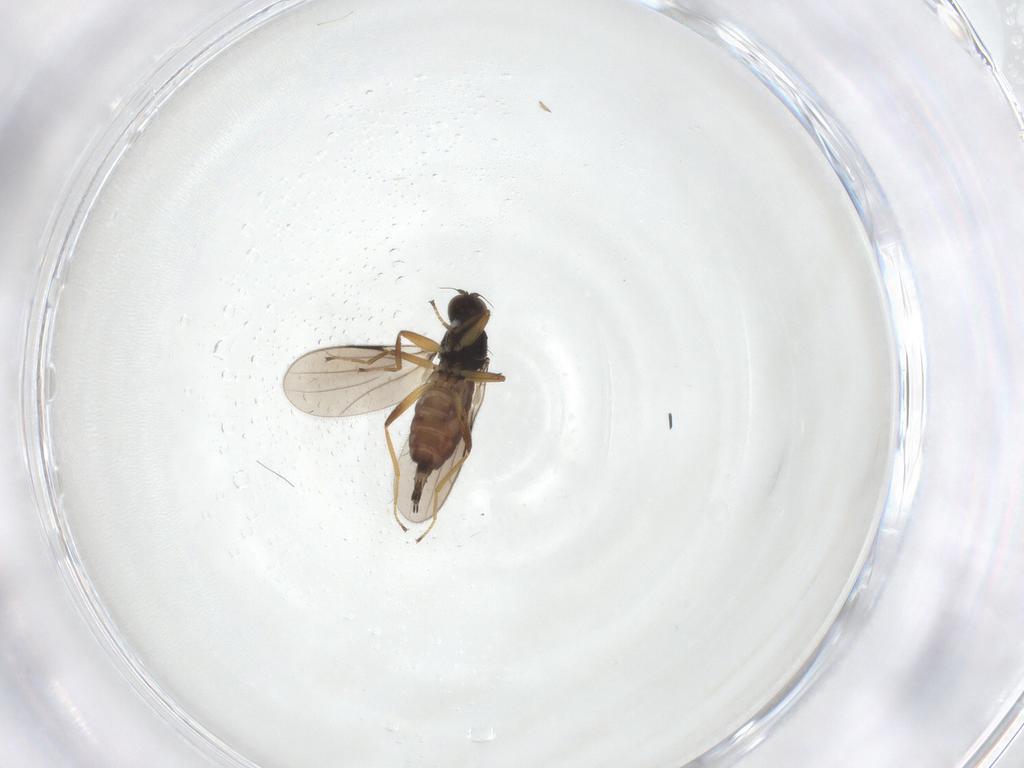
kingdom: Animalia
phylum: Arthropoda
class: Insecta
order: Diptera
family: Hybotidae
